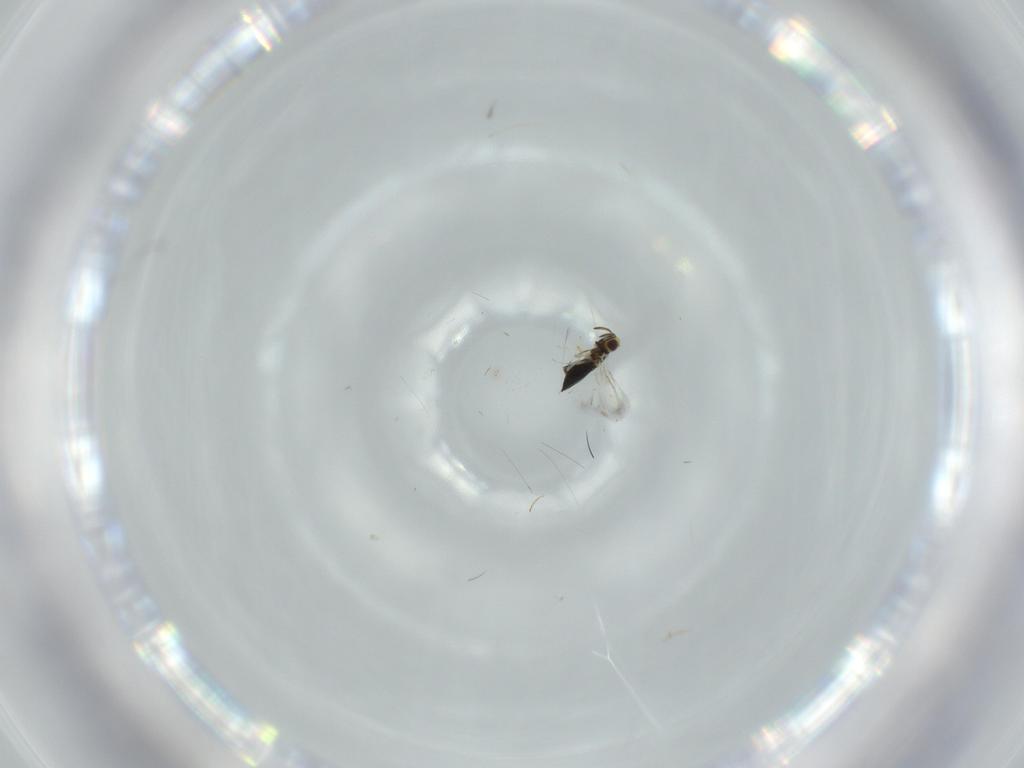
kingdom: Animalia
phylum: Arthropoda
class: Insecta
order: Hymenoptera
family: Signiphoridae
